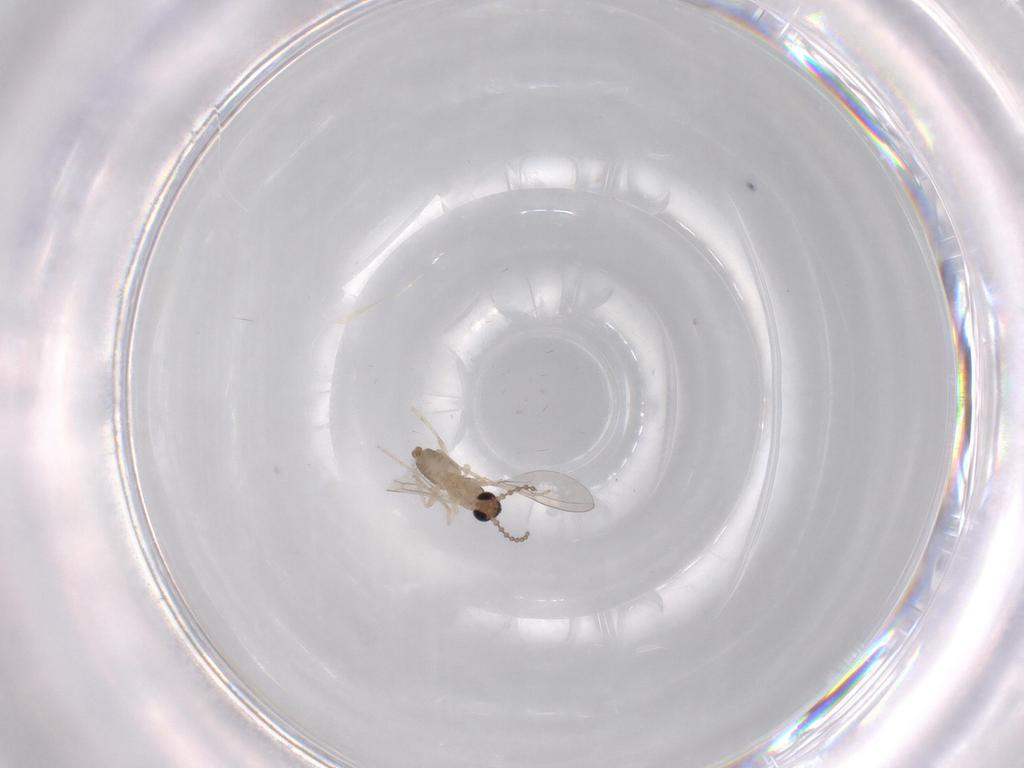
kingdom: Animalia
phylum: Arthropoda
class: Insecta
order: Diptera
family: Cecidomyiidae
